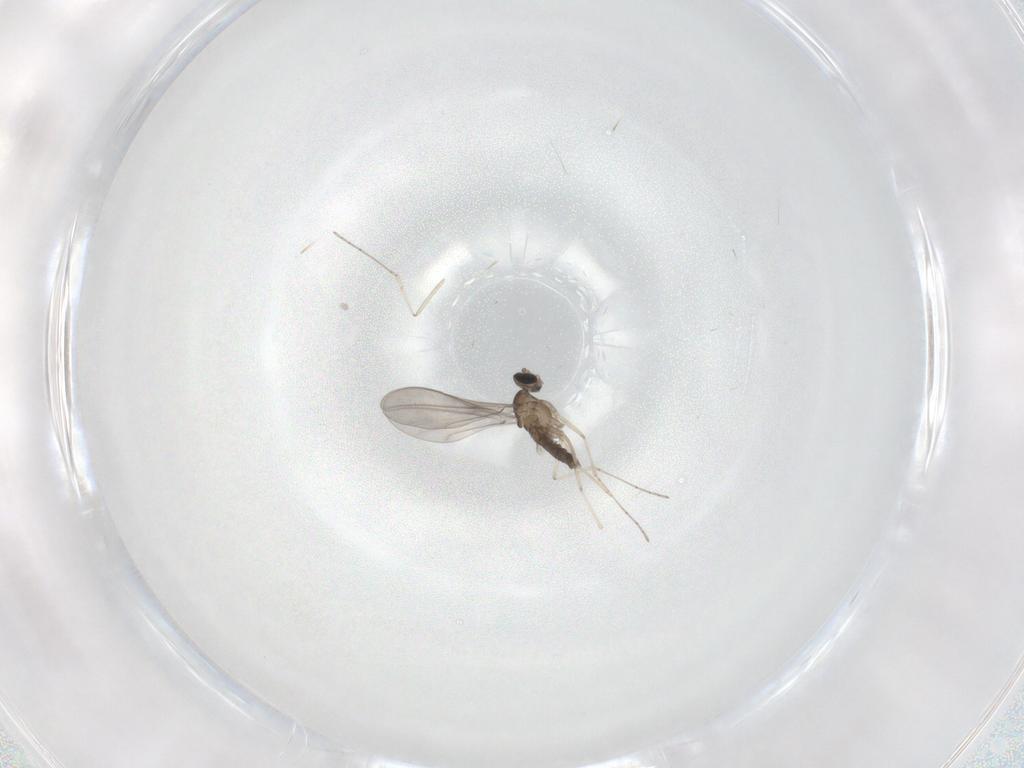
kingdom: Animalia
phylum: Arthropoda
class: Insecta
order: Diptera
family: Cecidomyiidae
